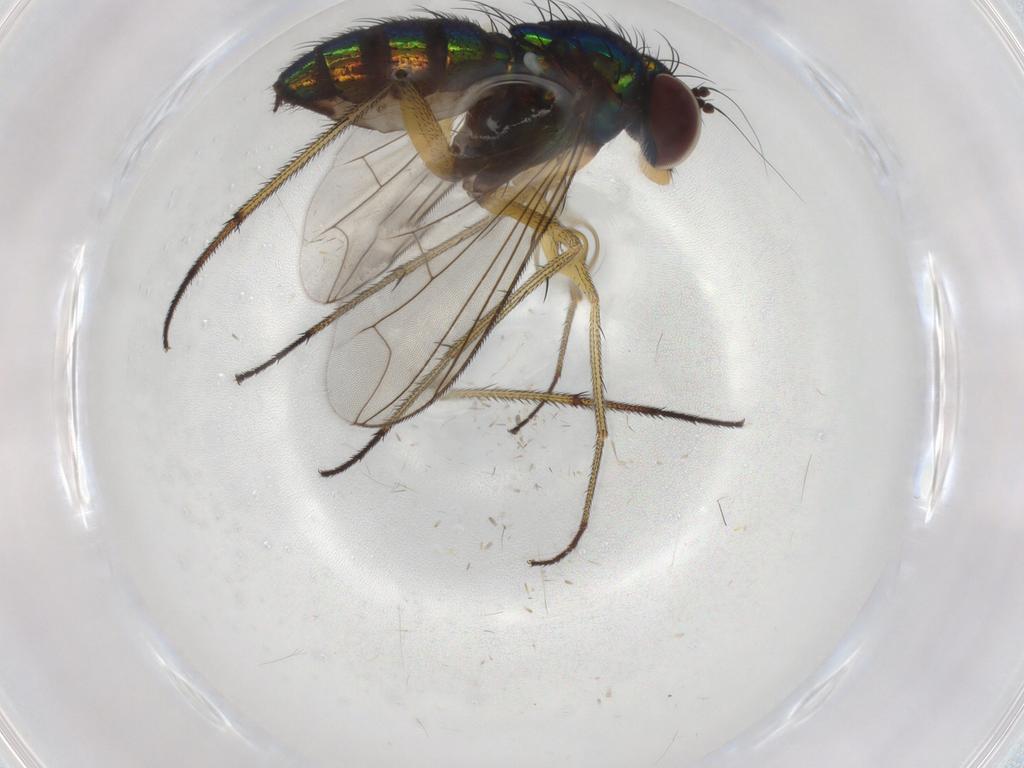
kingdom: Animalia
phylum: Arthropoda
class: Insecta
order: Diptera
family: Dolichopodidae
